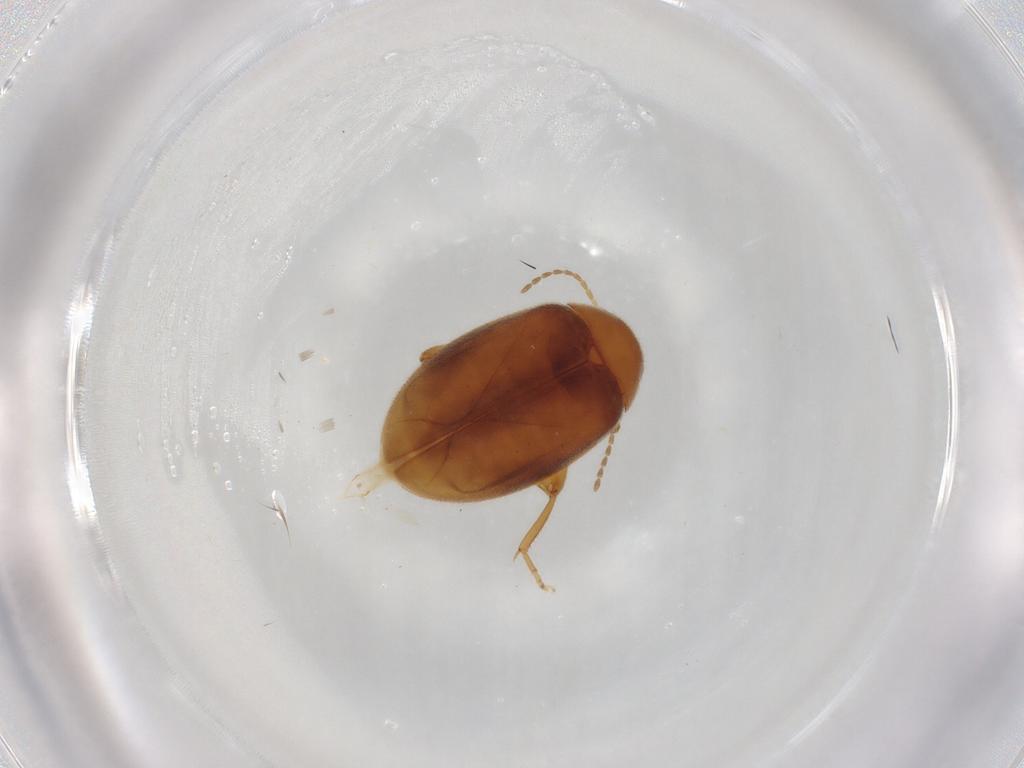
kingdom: Animalia
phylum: Arthropoda
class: Insecta
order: Coleoptera
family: Scirtidae
